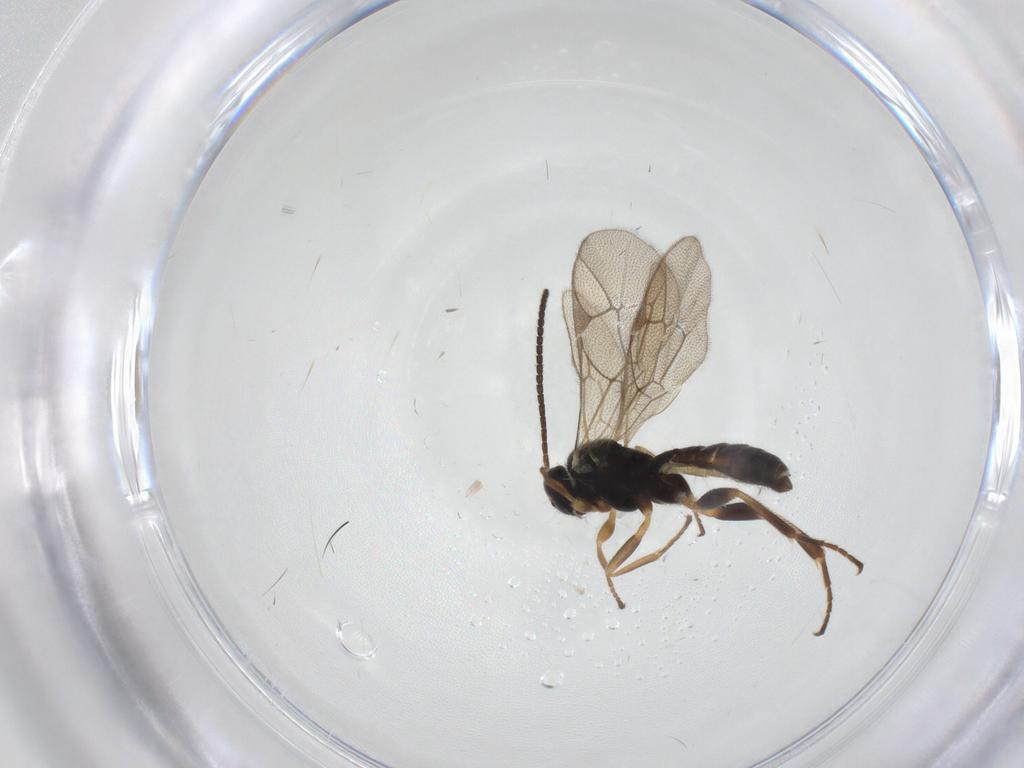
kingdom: Animalia
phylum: Arthropoda
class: Insecta
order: Hymenoptera
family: Ichneumonidae
